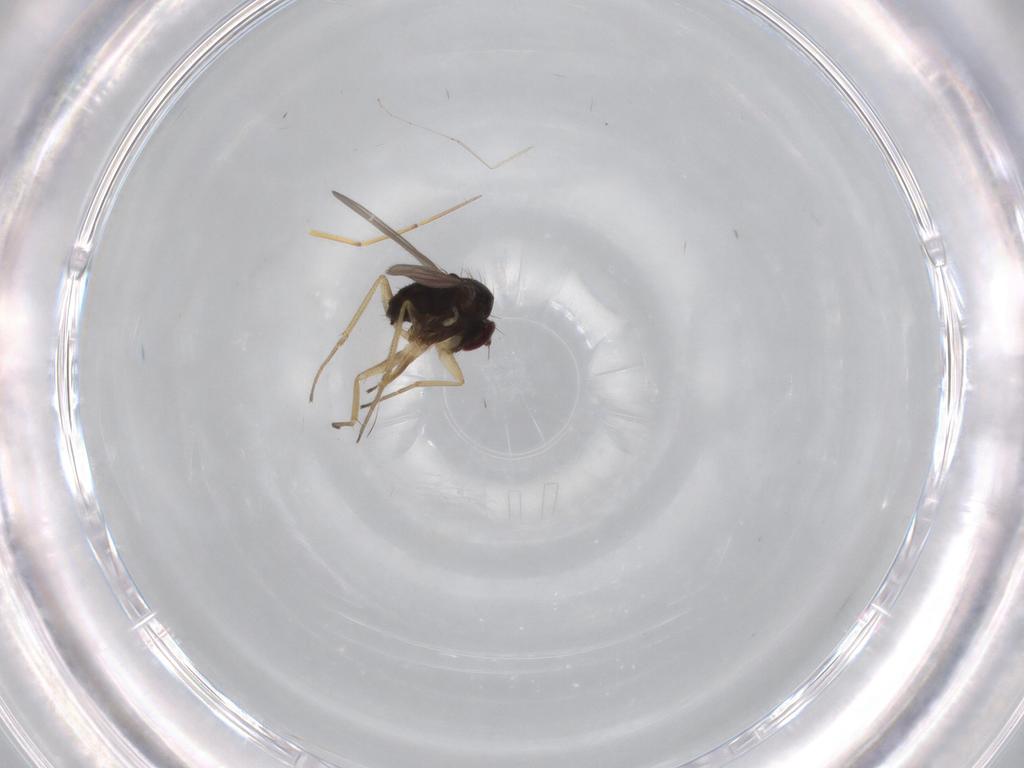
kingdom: Animalia
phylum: Arthropoda
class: Insecta
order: Diptera
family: Dolichopodidae
